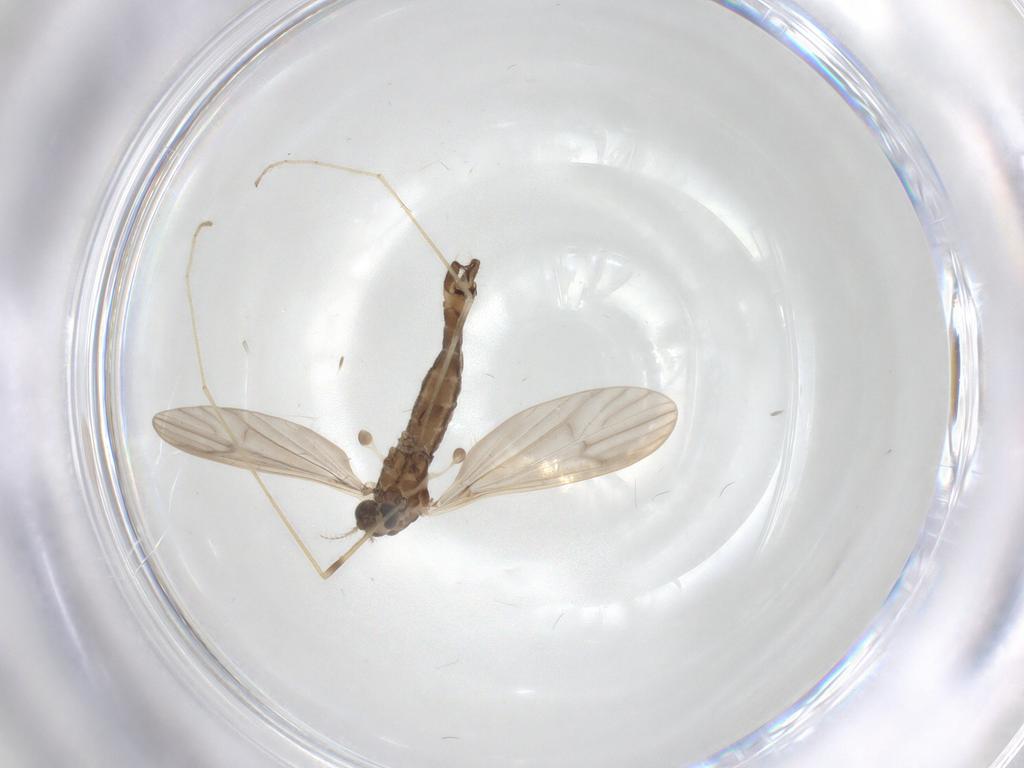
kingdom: Animalia
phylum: Arthropoda
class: Insecta
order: Diptera
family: Limoniidae
